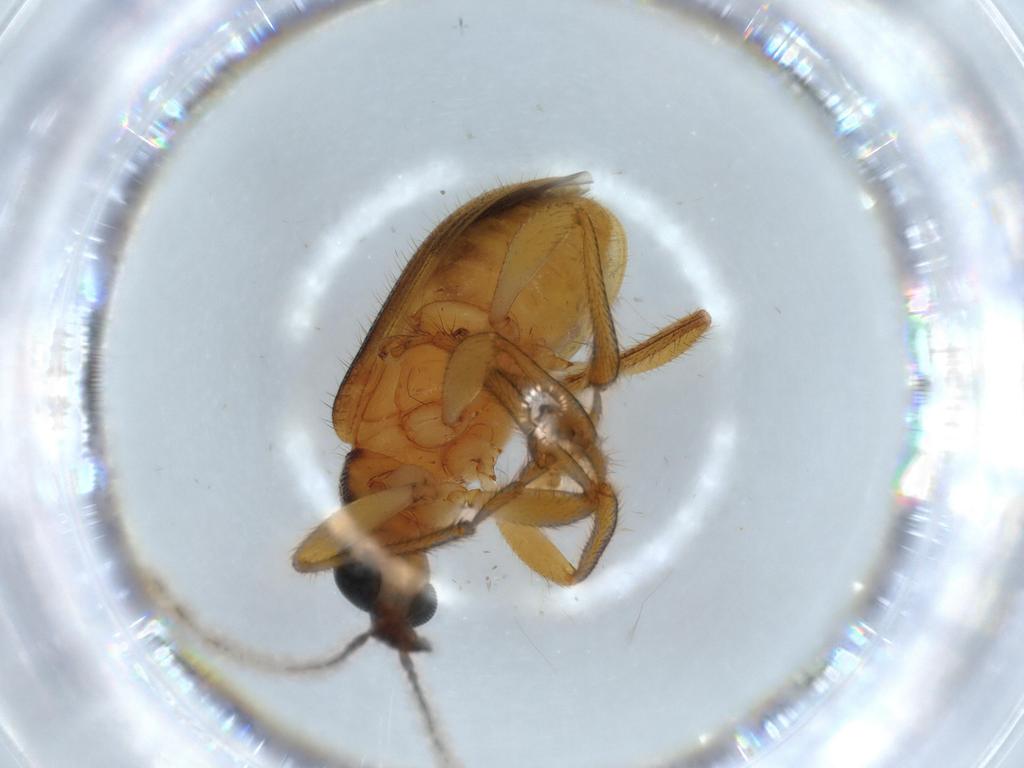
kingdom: Animalia
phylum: Arthropoda
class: Insecta
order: Coleoptera
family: Attelabidae
